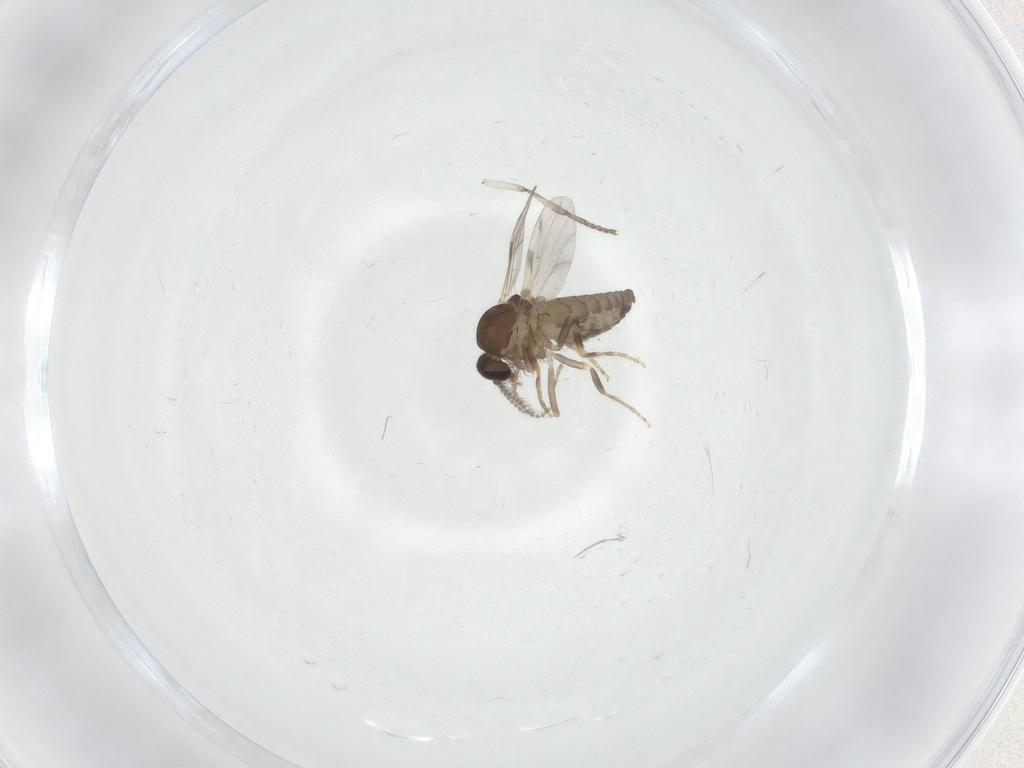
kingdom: Animalia
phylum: Arthropoda
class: Insecta
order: Diptera
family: Ceratopogonidae
